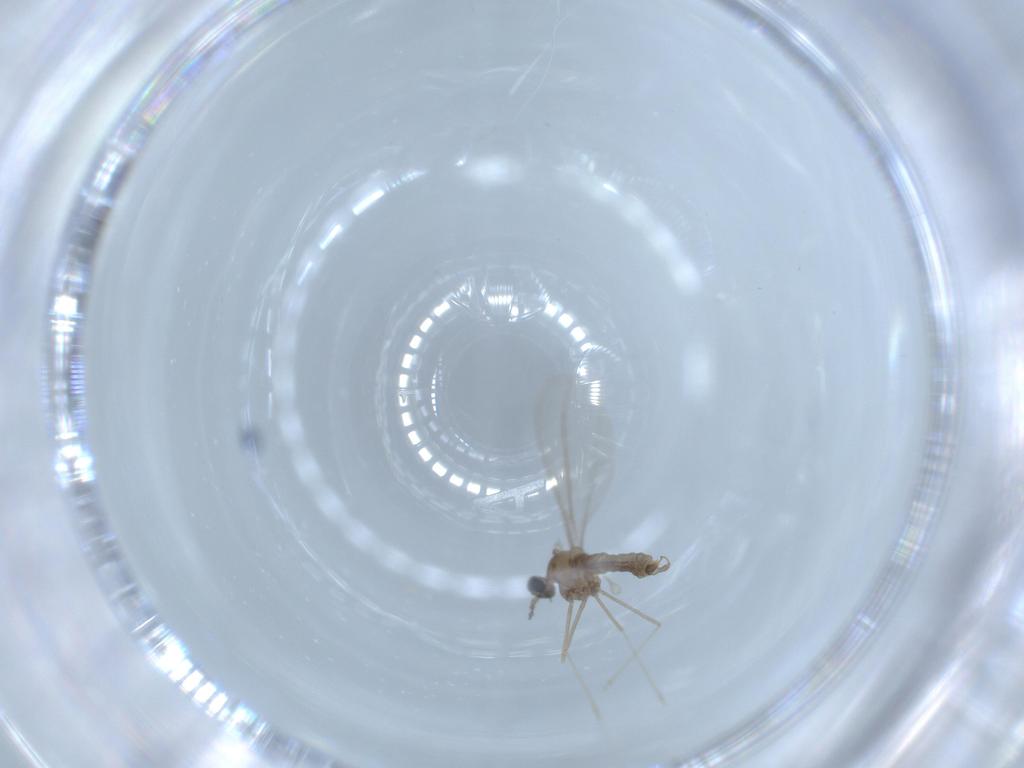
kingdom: Animalia
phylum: Arthropoda
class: Insecta
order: Diptera
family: Cecidomyiidae
